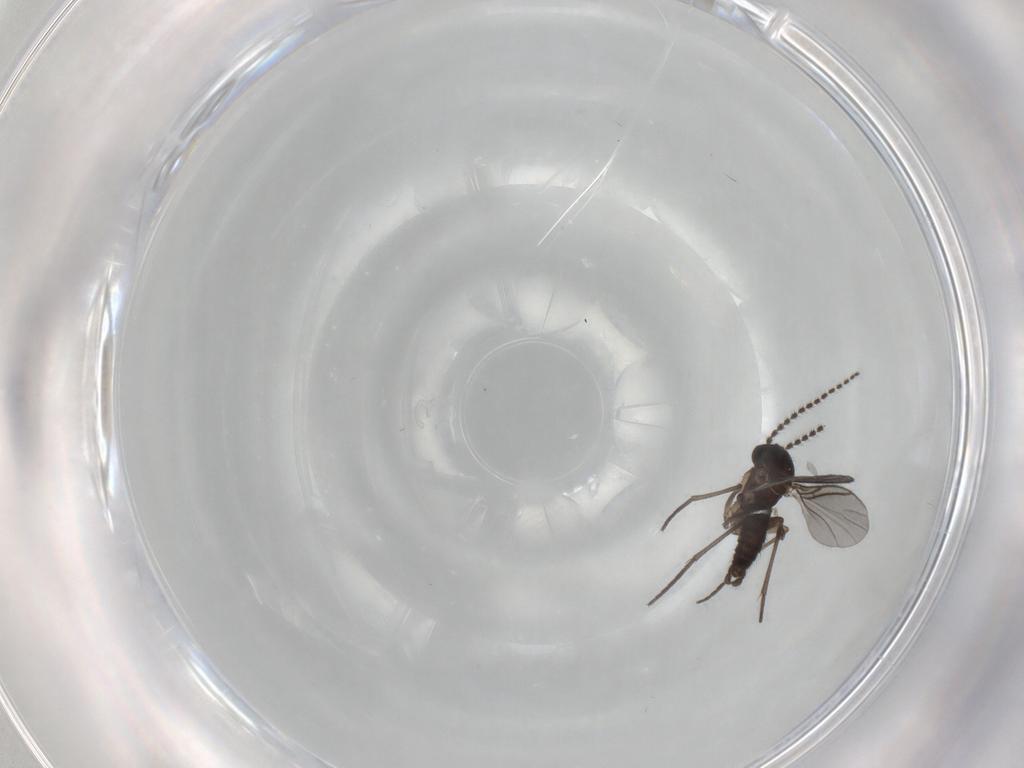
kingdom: Animalia
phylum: Arthropoda
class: Insecta
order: Diptera
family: Sciaridae
